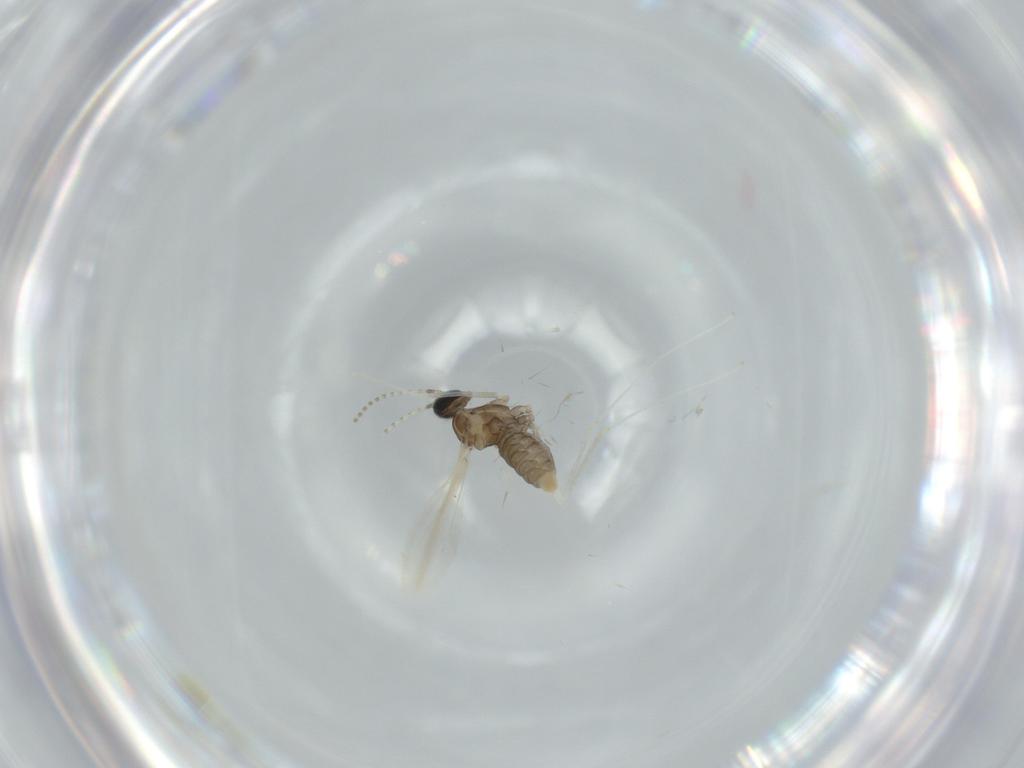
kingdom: Animalia
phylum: Arthropoda
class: Insecta
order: Diptera
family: Cecidomyiidae
